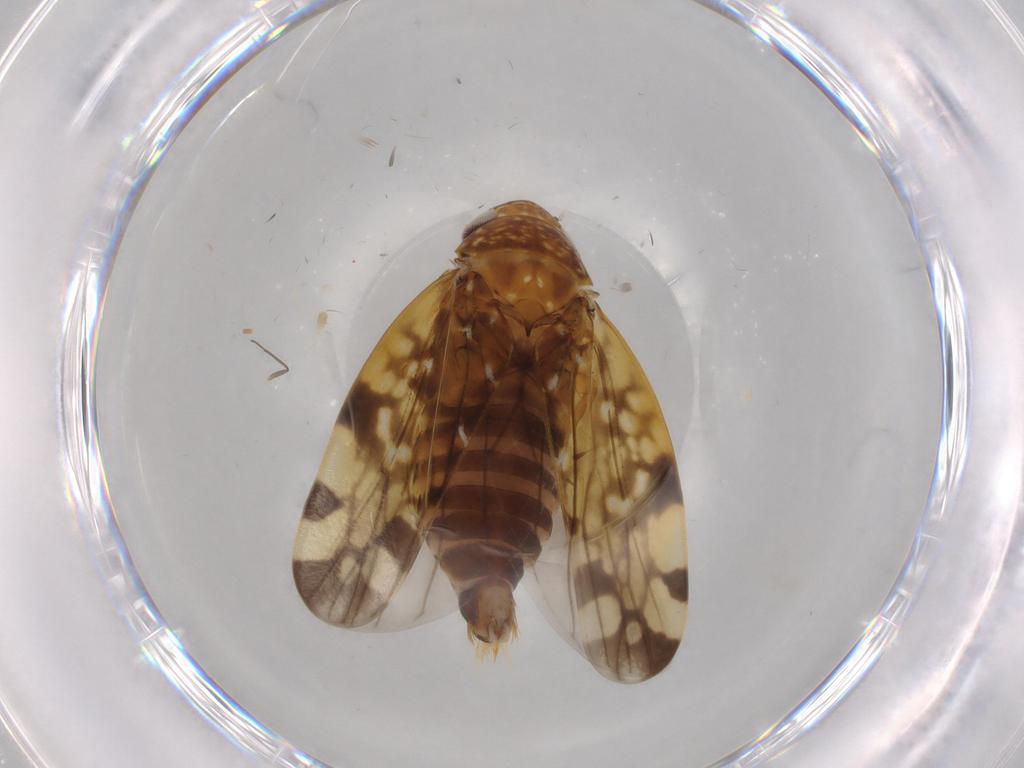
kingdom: Animalia
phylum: Arthropoda
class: Insecta
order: Hemiptera
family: Cicadellidae
